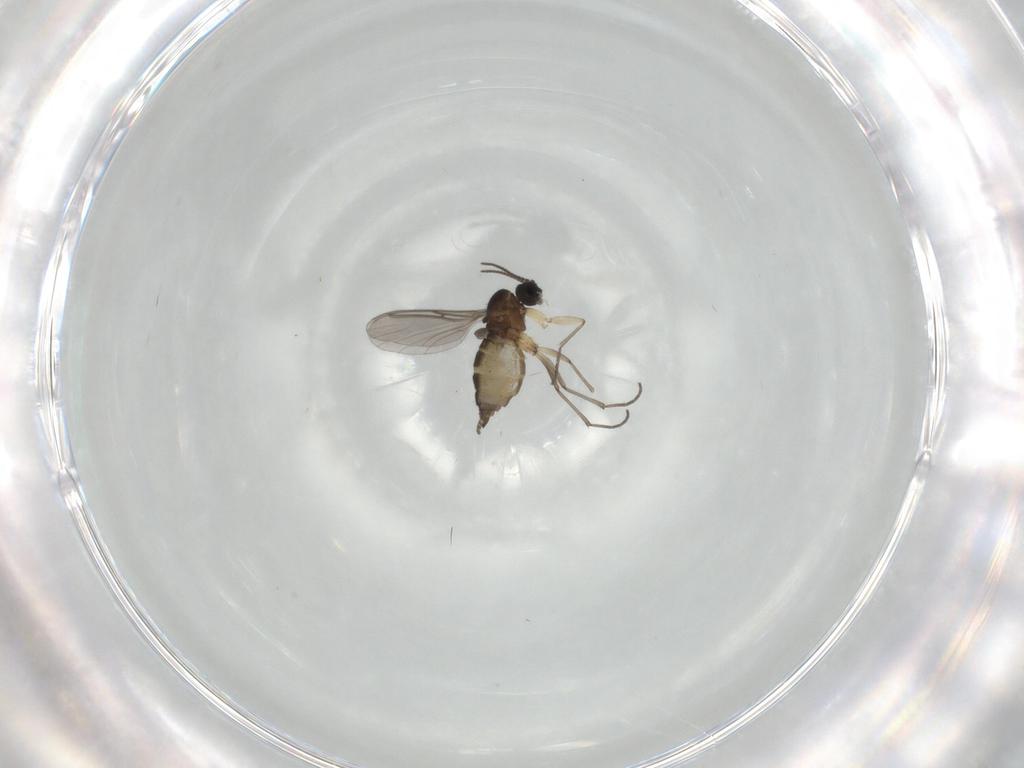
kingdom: Animalia
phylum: Arthropoda
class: Insecta
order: Diptera
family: Sciaridae
